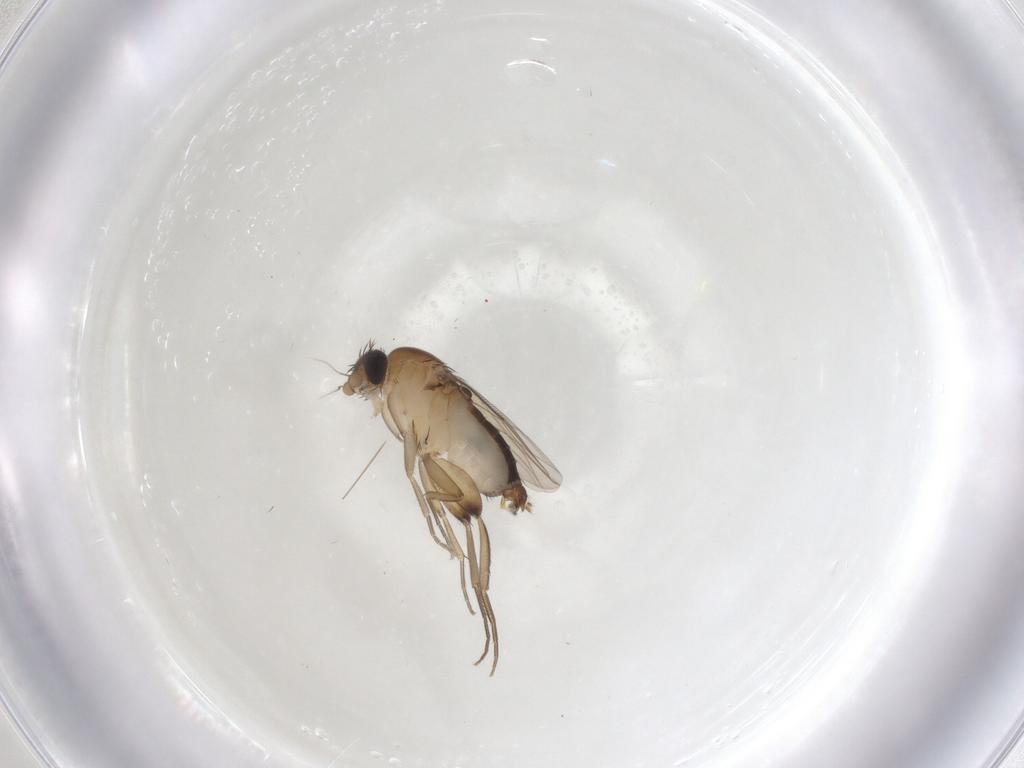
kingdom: Animalia
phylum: Arthropoda
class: Insecta
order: Diptera
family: Phoridae
